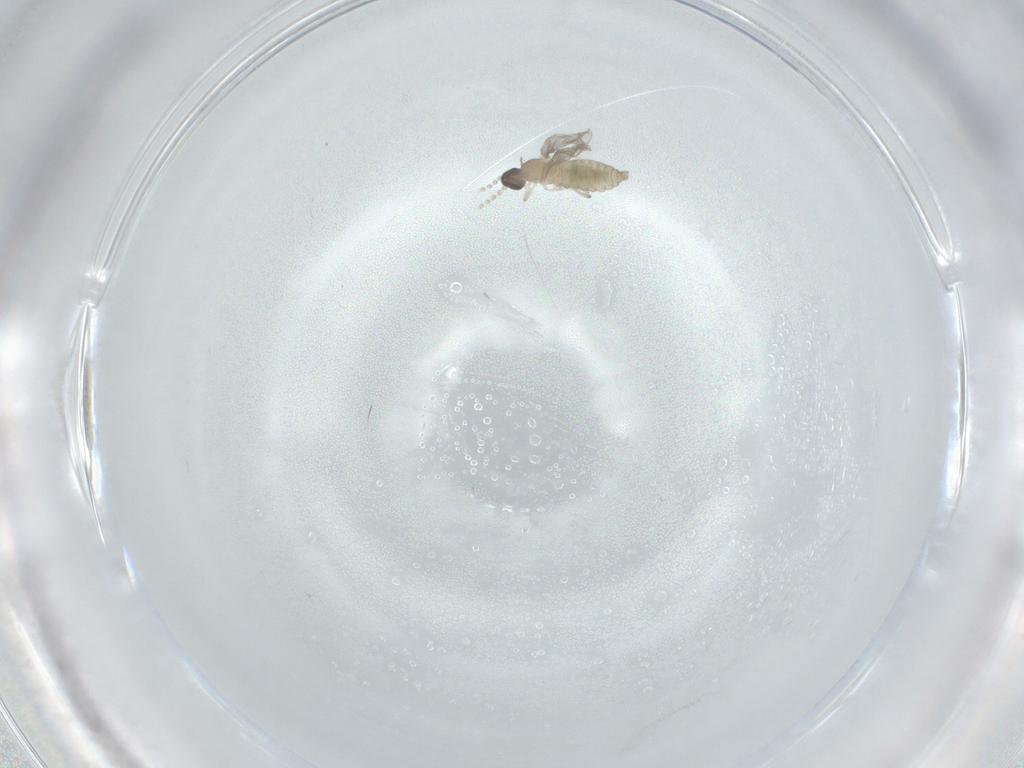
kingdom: Animalia
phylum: Arthropoda
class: Insecta
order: Diptera
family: Cecidomyiidae
